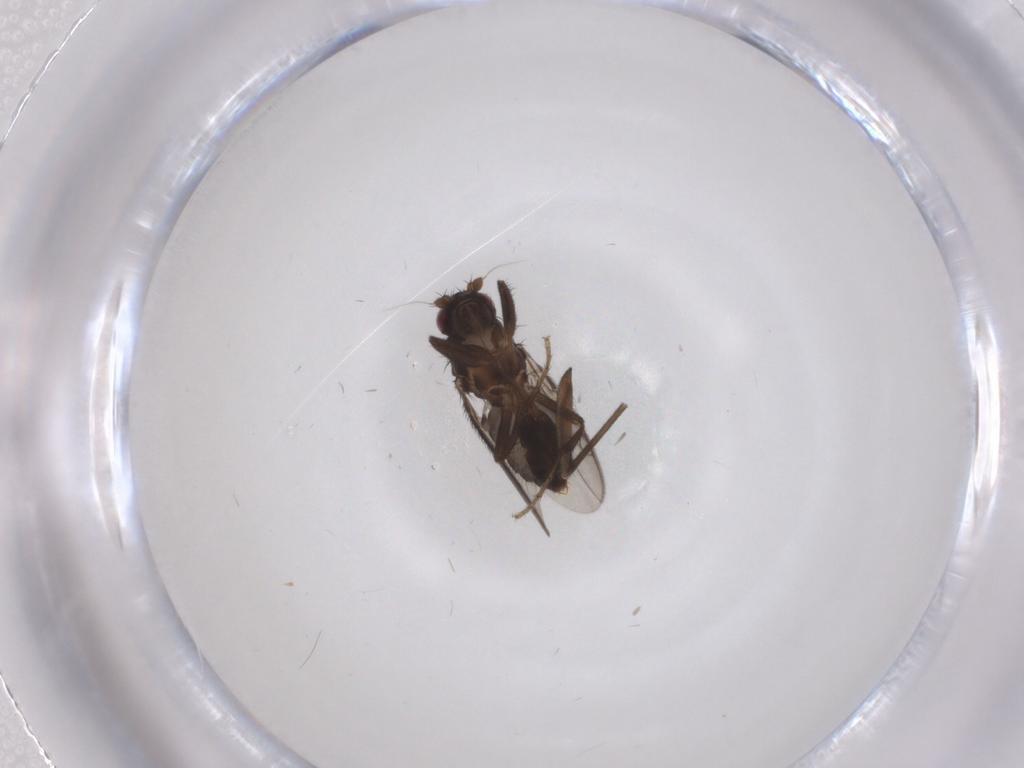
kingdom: Animalia
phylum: Arthropoda
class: Insecta
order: Diptera
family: Sphaeroceridae
